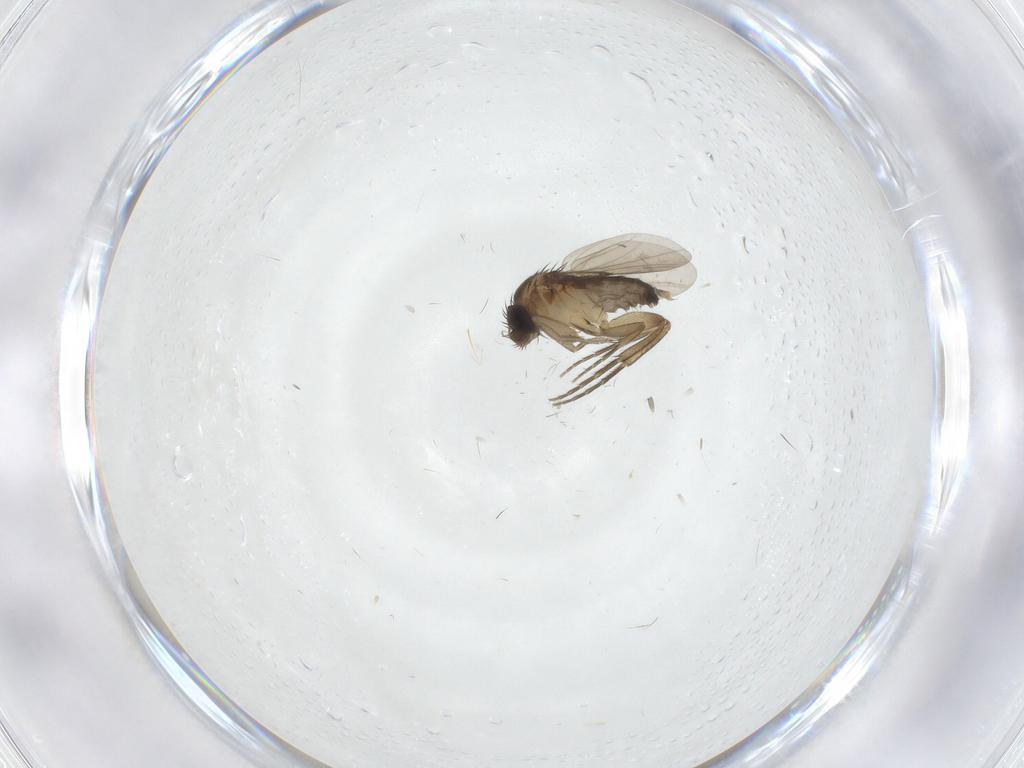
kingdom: Animalia
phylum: Arthropoda
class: Insecta
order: Diptera
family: Phoridae
